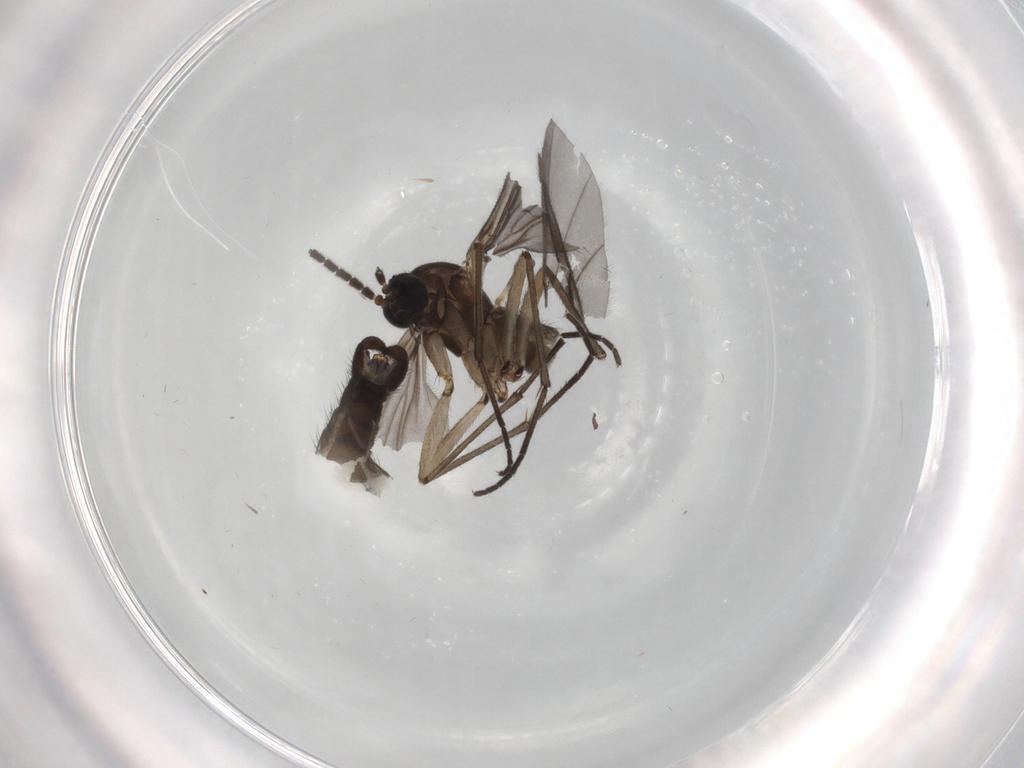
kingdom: Animalia
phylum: Arthropoda
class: Insecta
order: Diptera
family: Sciaridae
